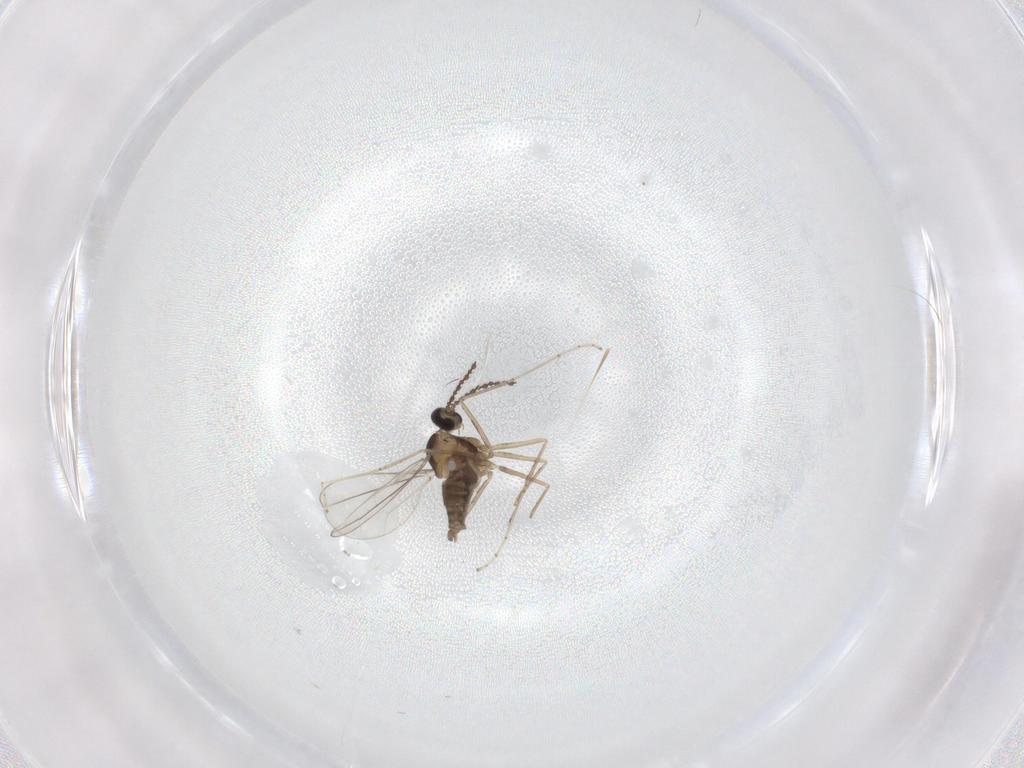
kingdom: Animalia
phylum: Arthropoda
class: Insecta
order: Diptera
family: Cecidomyiidae
